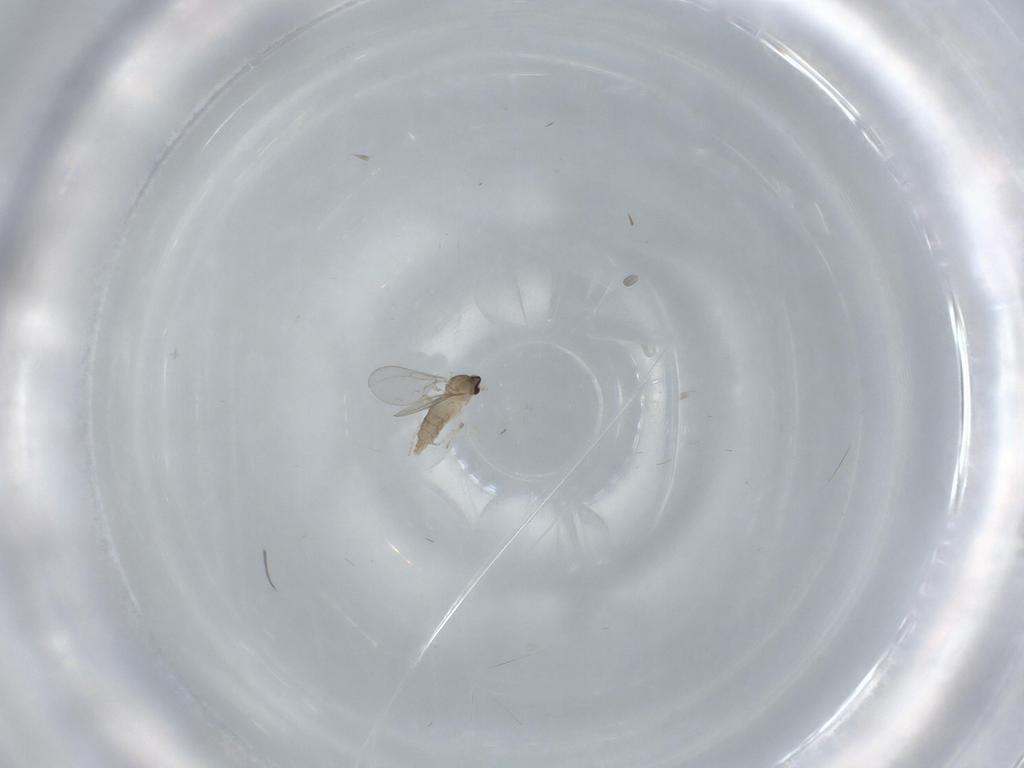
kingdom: Animalia
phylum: Arthropoda
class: Insecta
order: Diptera
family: Cecidomyiidae
